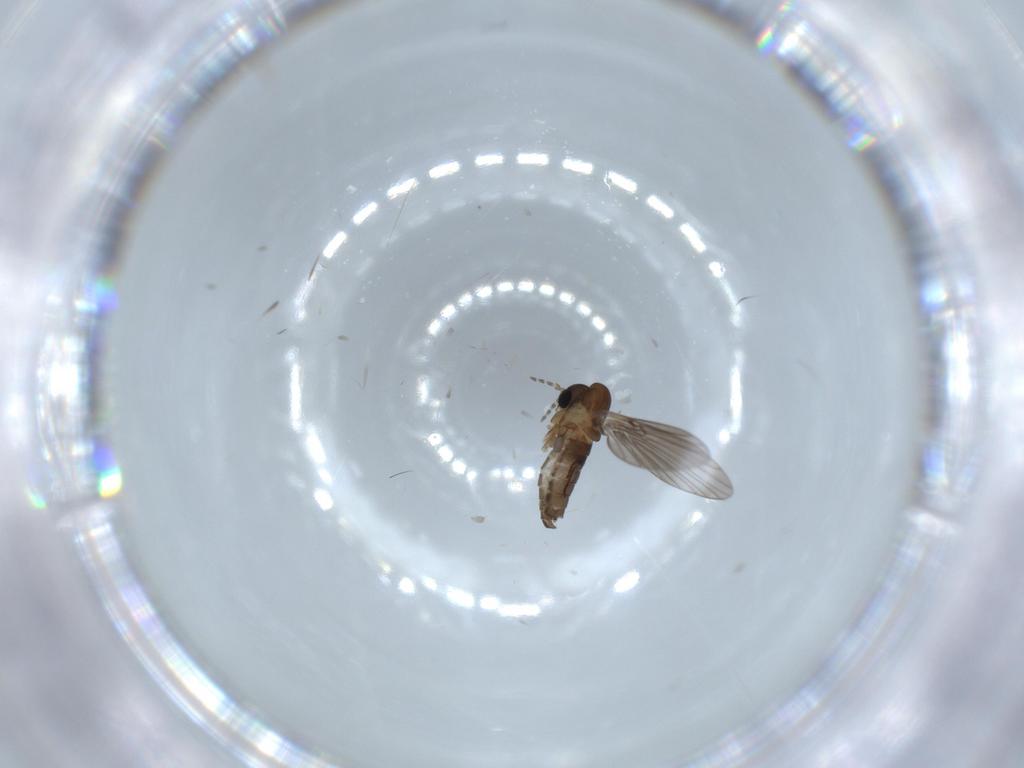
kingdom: Animalia
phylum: Arthropoda
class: Insecta
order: Diptera
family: Psychodidae
